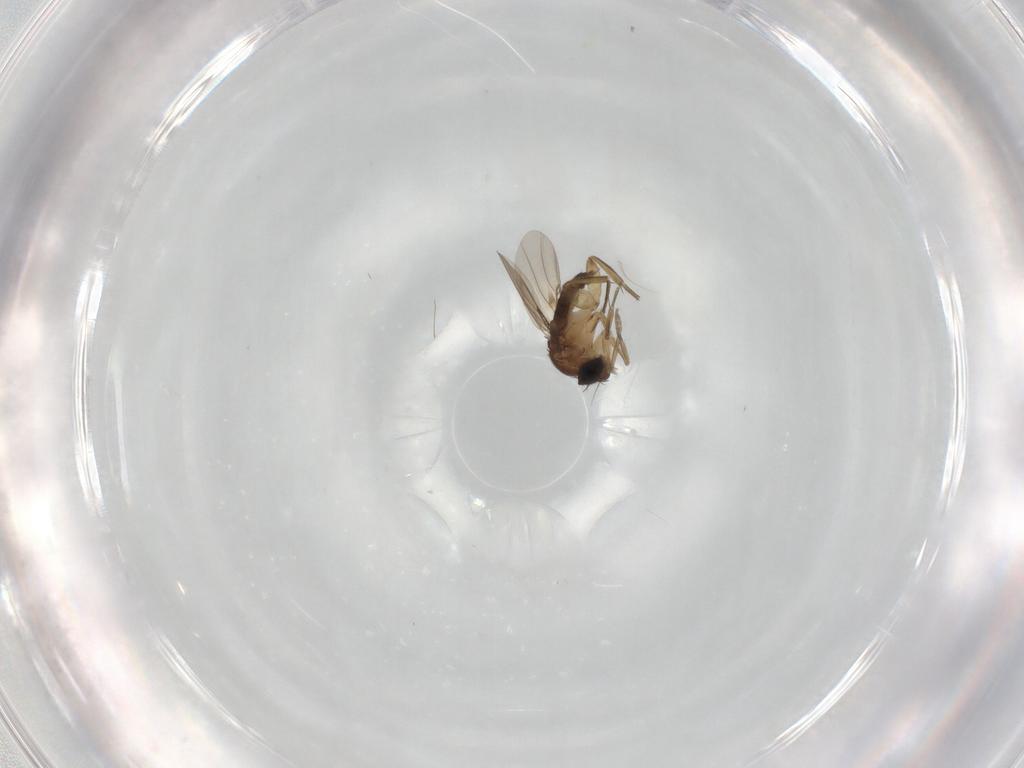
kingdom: Animalia
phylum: Arthropoda
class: Insecta
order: Diptera
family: Phoridae
